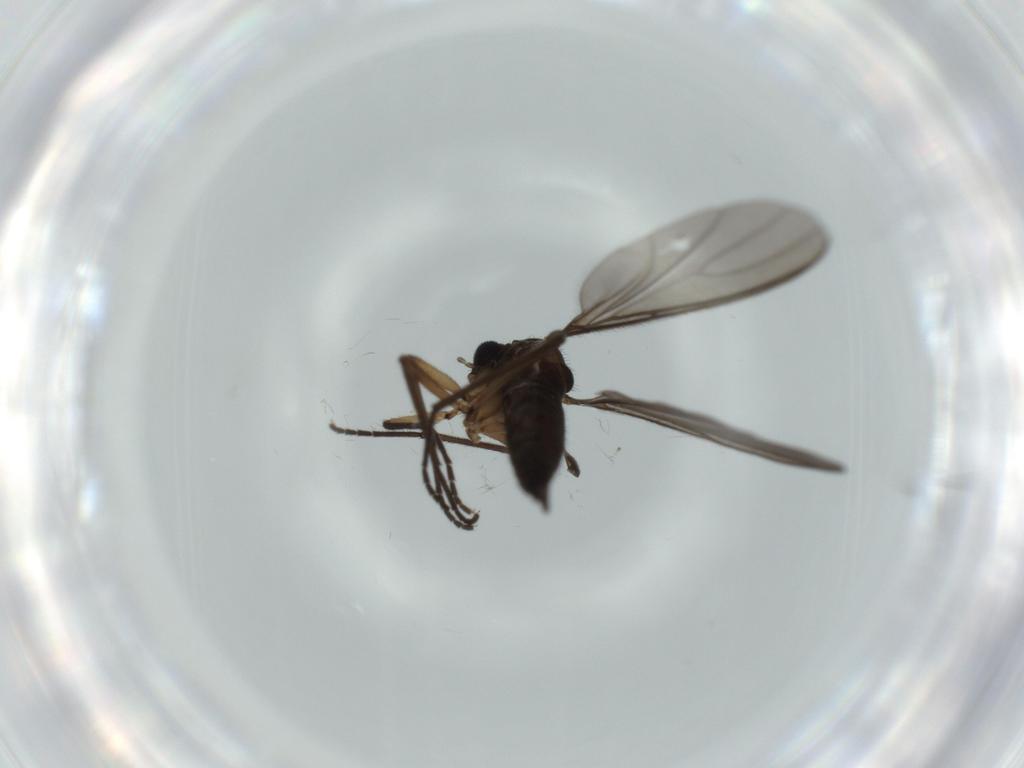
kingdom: Animalia
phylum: Arthropoda
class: Insecta
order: Diptera
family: Sciaridae
